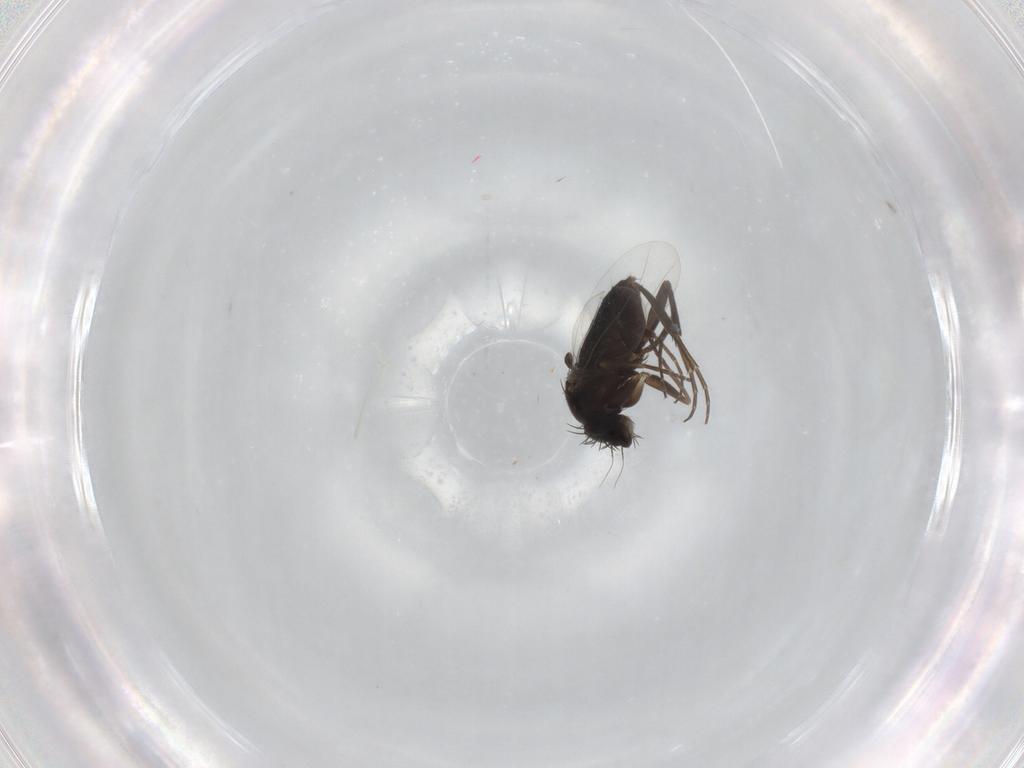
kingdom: Animalia
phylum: Arthropoda
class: Insecta
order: Diptera
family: Phoridae
